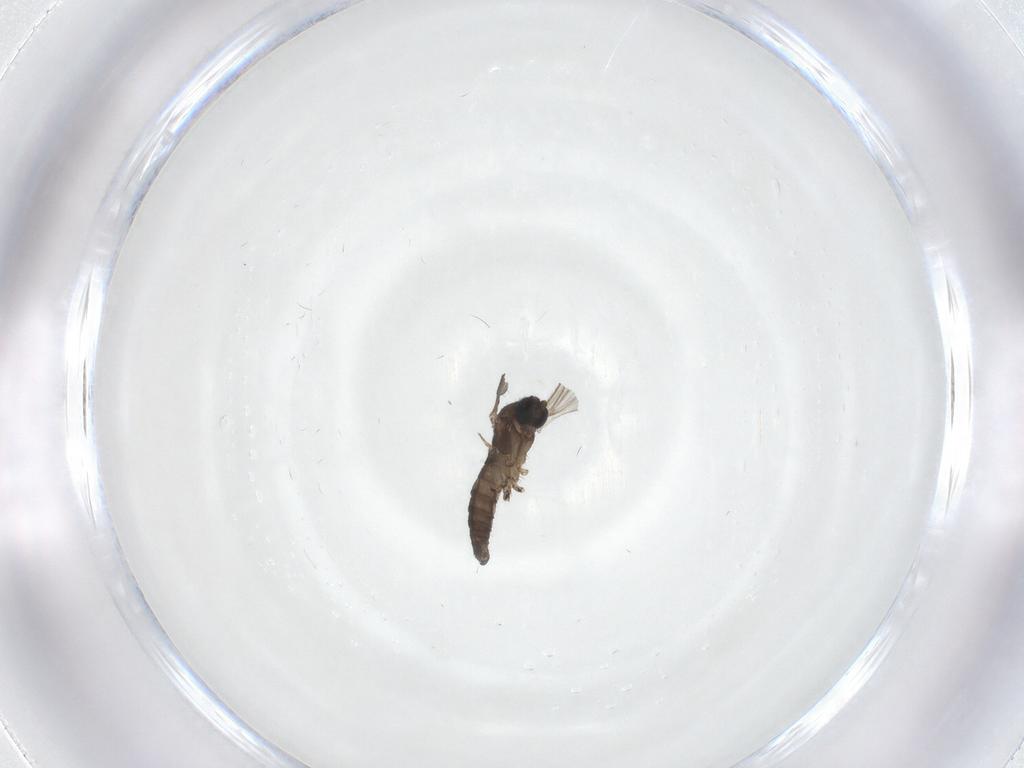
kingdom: Animalia
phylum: Arthropoda
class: Insecta
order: Diptera
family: Sciaridae
